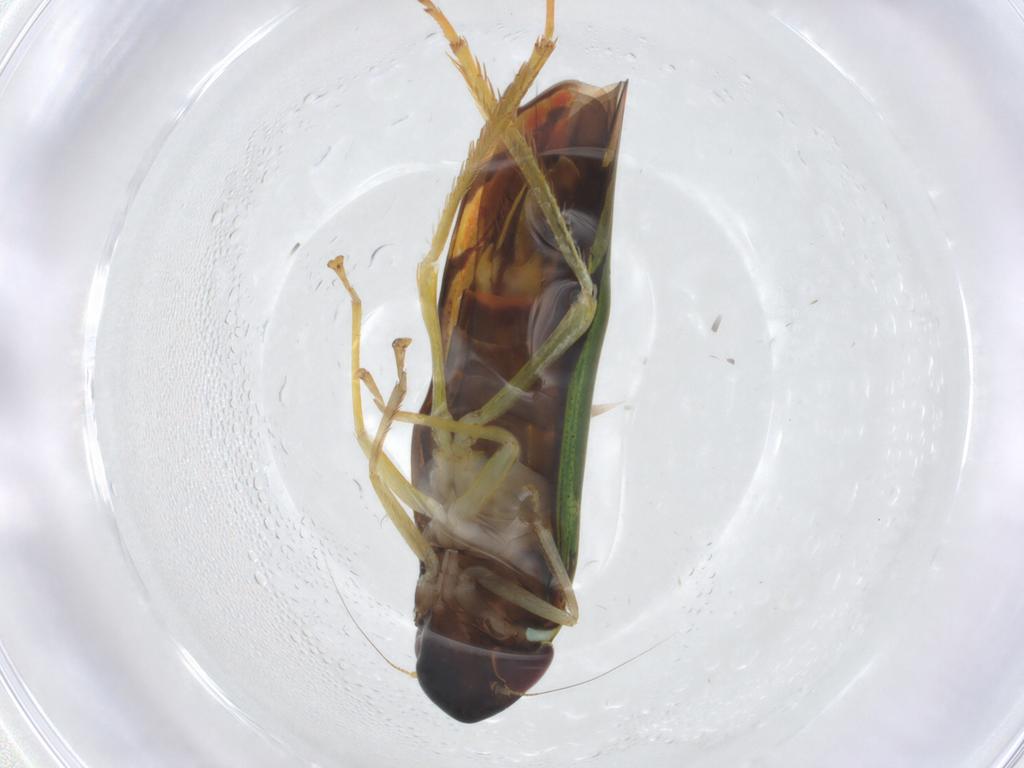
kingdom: Animalia
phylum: Arthropoda
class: Insecta
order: Hemiptera
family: Cicadellidae
